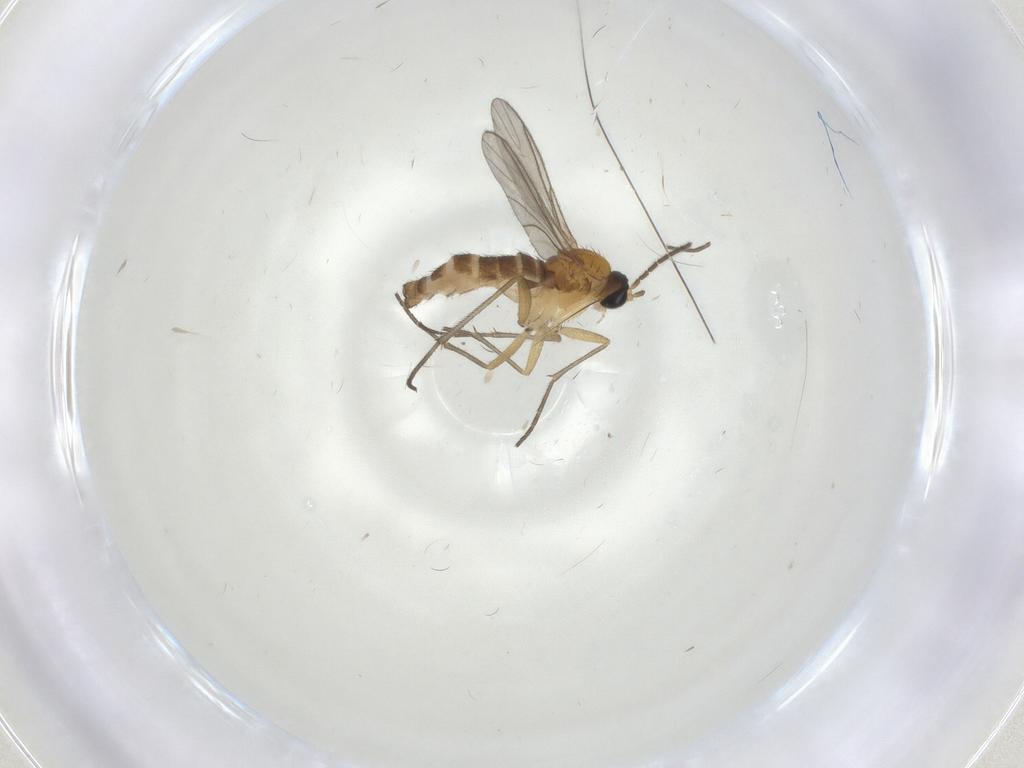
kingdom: Animalia
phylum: Arthropoda
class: Insecta
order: Diptera
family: Sciaridae
